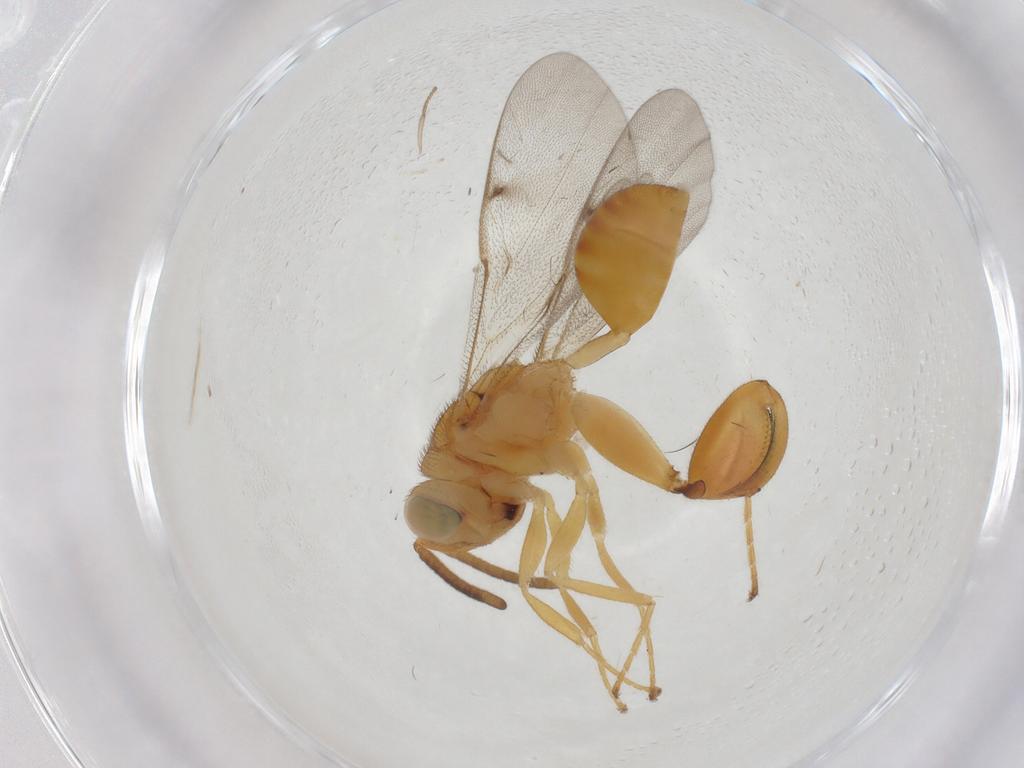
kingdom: Animalia
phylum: Arthropoda
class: Insecta
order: Hymenoptera
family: Chalcididae
